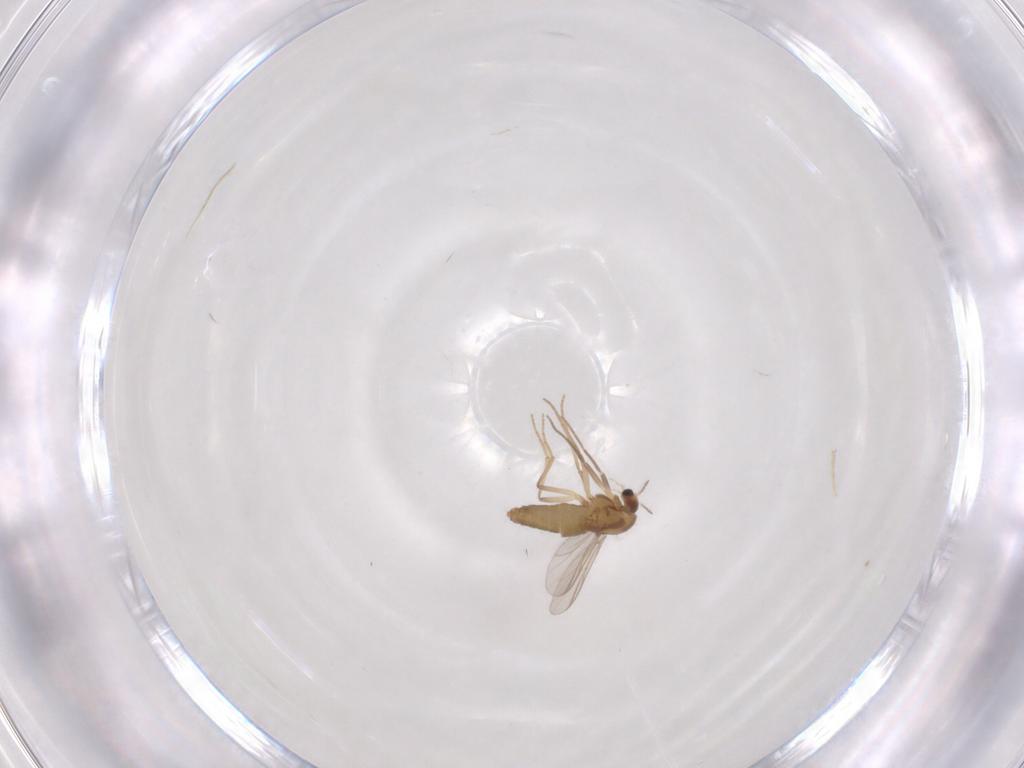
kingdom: Animalia
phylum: Arthropoda
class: Insecta
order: Diptera
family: Chironomidae
